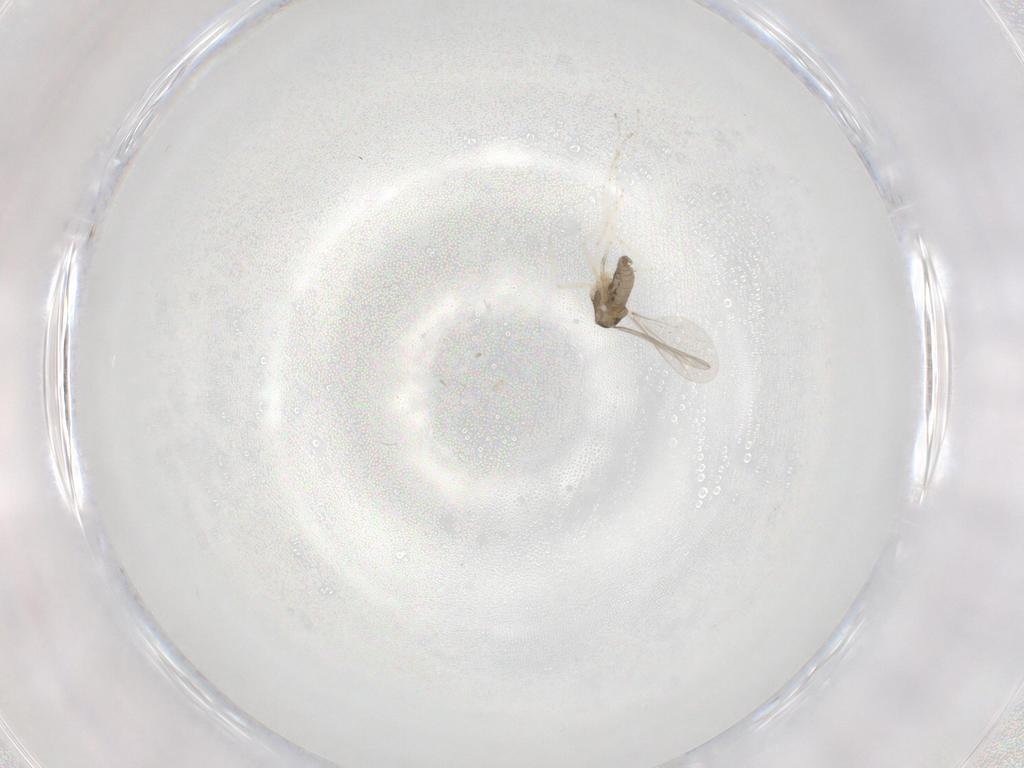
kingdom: Animalia
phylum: Arthropoda
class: Insecta
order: Diptera
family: Cecidomyiidae
